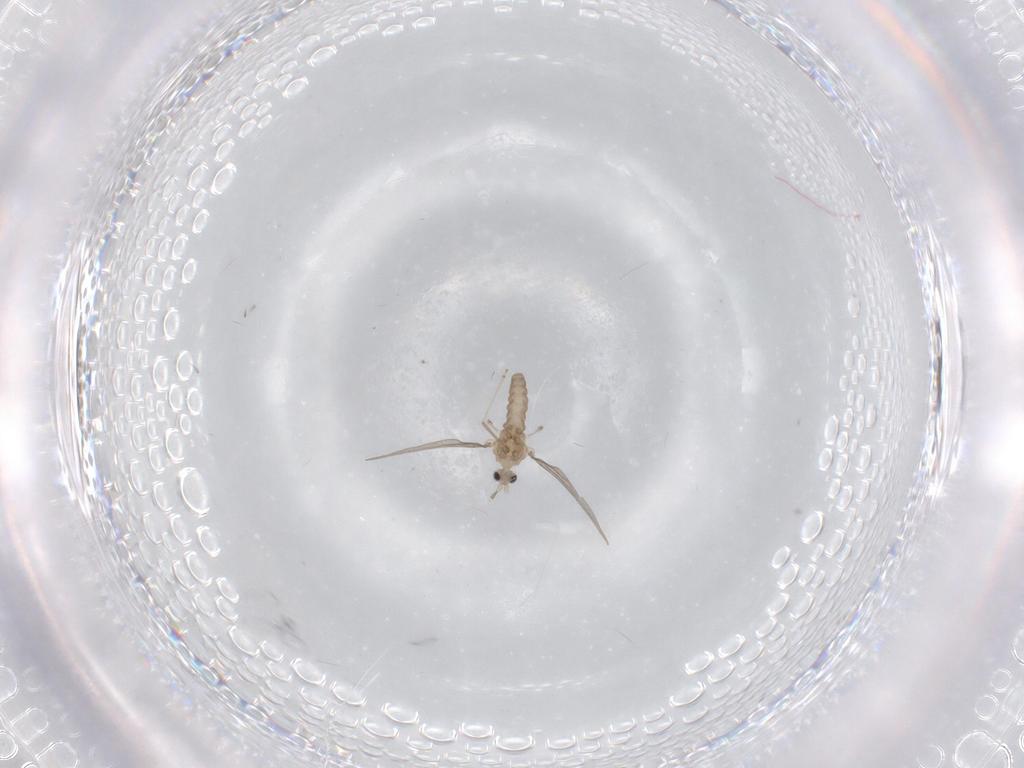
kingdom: Animalia
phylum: Arthropoda
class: Insecta
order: Diptera
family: Dolichopodidae
